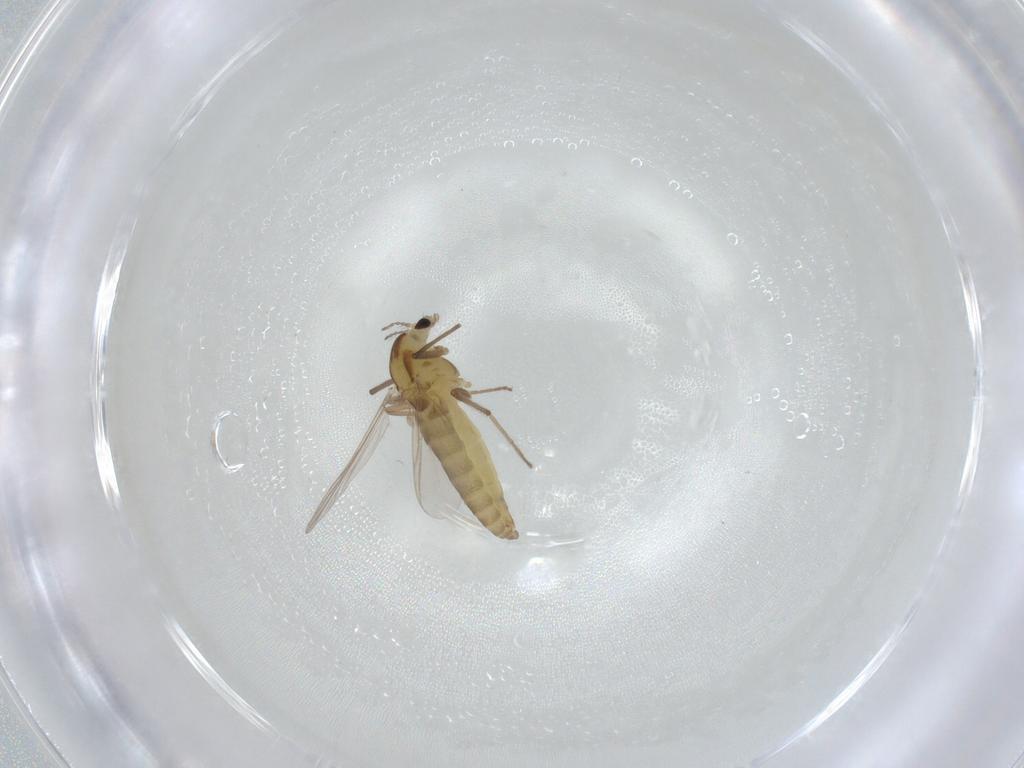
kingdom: Animalia
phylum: Arthropoda
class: Insecta
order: Diptera
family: Chironomidae
